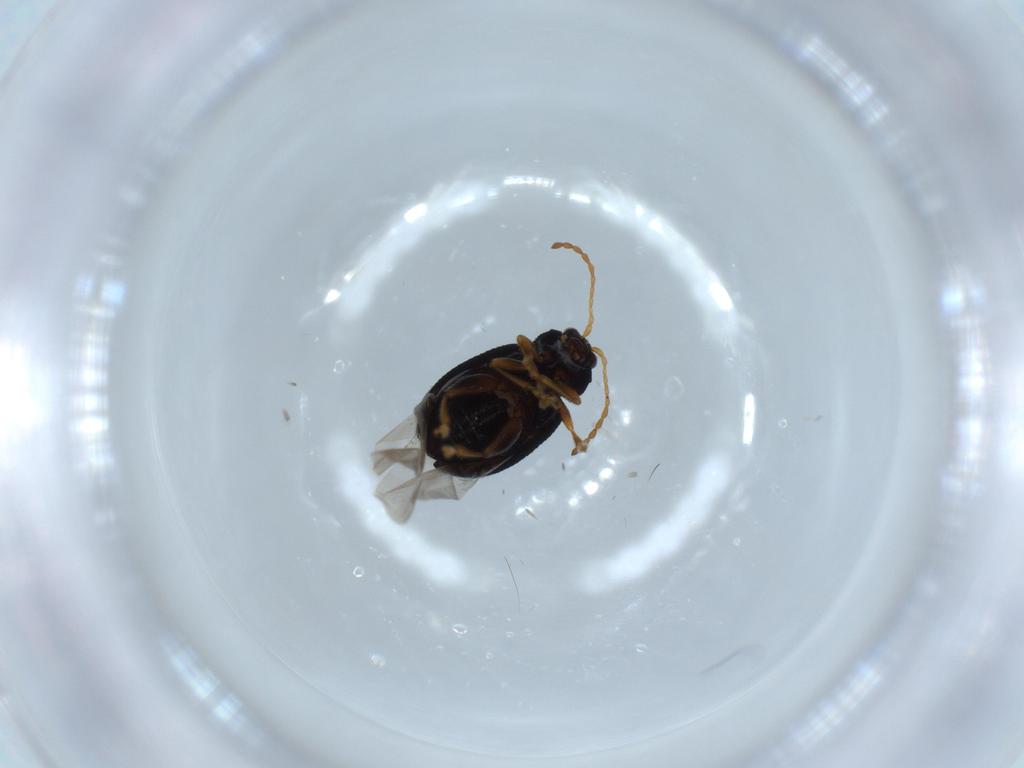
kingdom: Animalia
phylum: Arthropoda
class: Insecta
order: Coleoptera
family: Chrysomelidae
